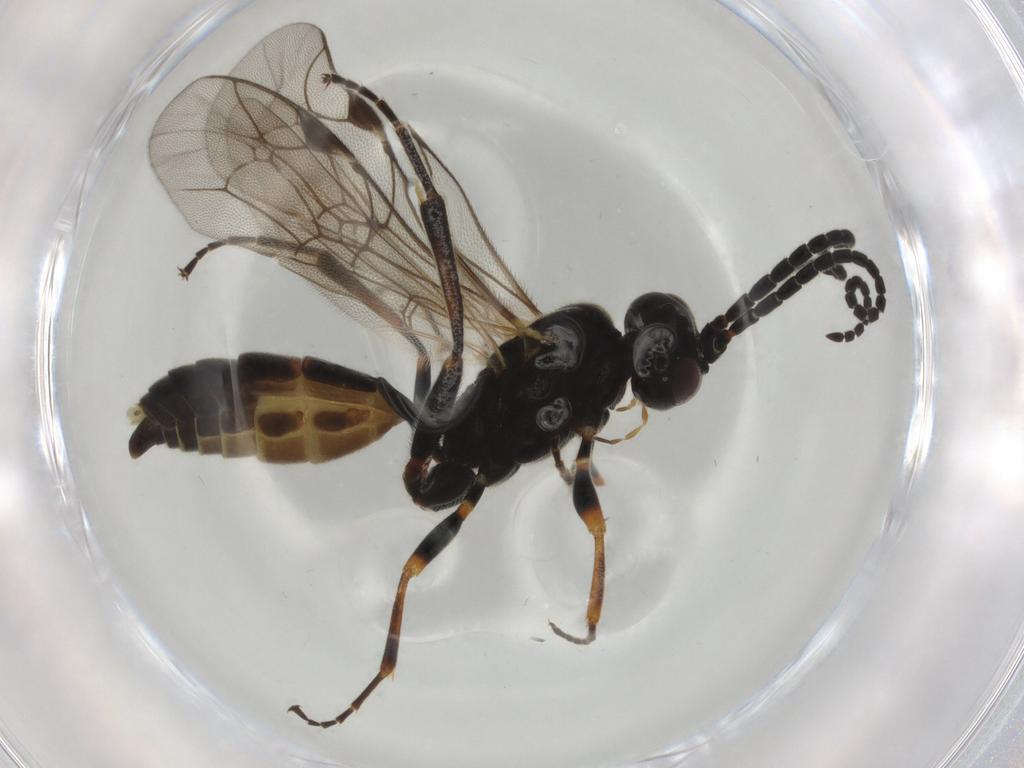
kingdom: Animalia
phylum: Arthropoda
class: Insecta
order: Hymenoptera
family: Ichneumonidae
